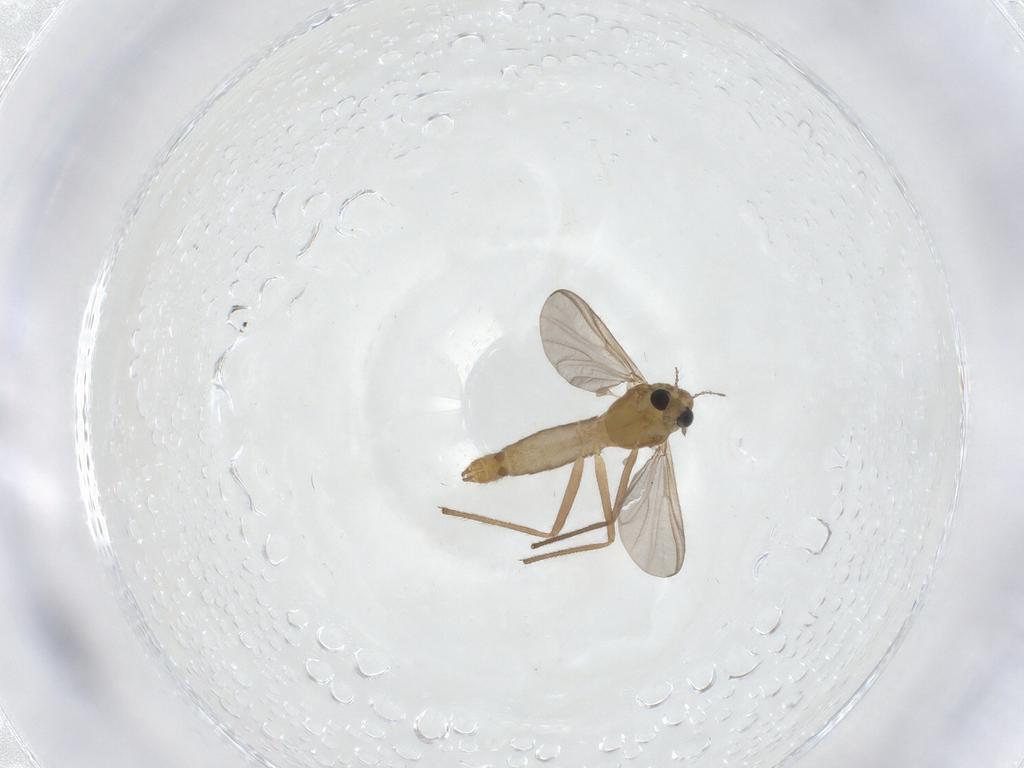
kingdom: Animalia
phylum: Arthropoda
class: Insecta
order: Diptera
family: Chironomidae
